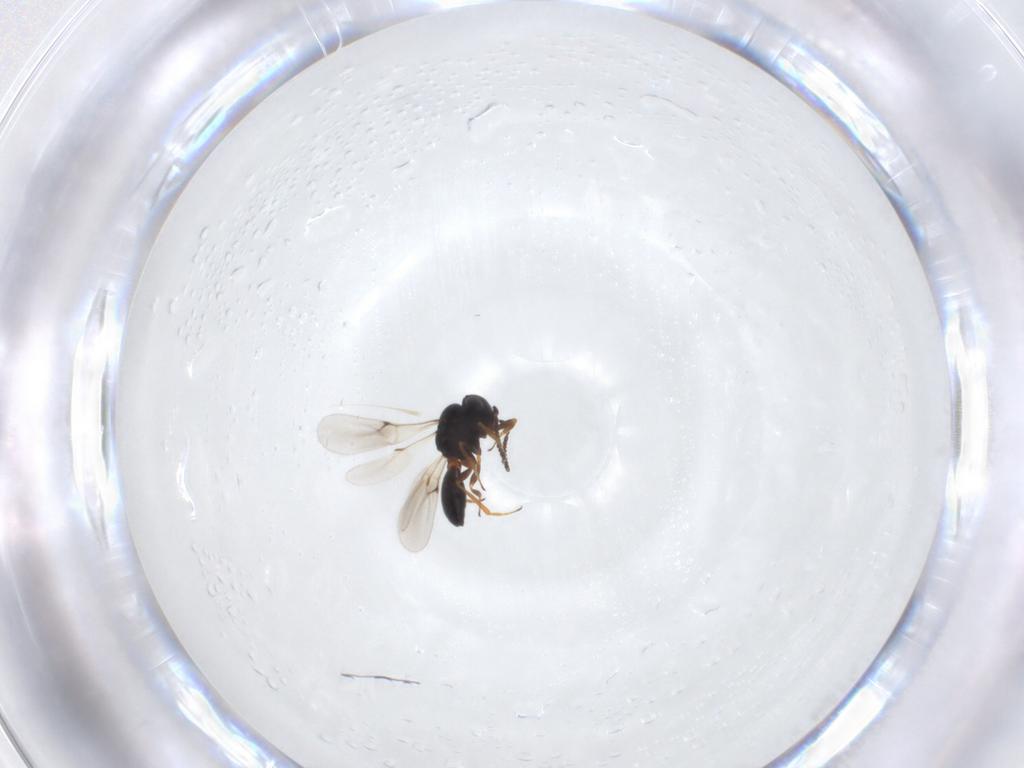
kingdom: Animalia
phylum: Arthropoda
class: Insecta
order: Hymenoptera
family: Scelionidae
